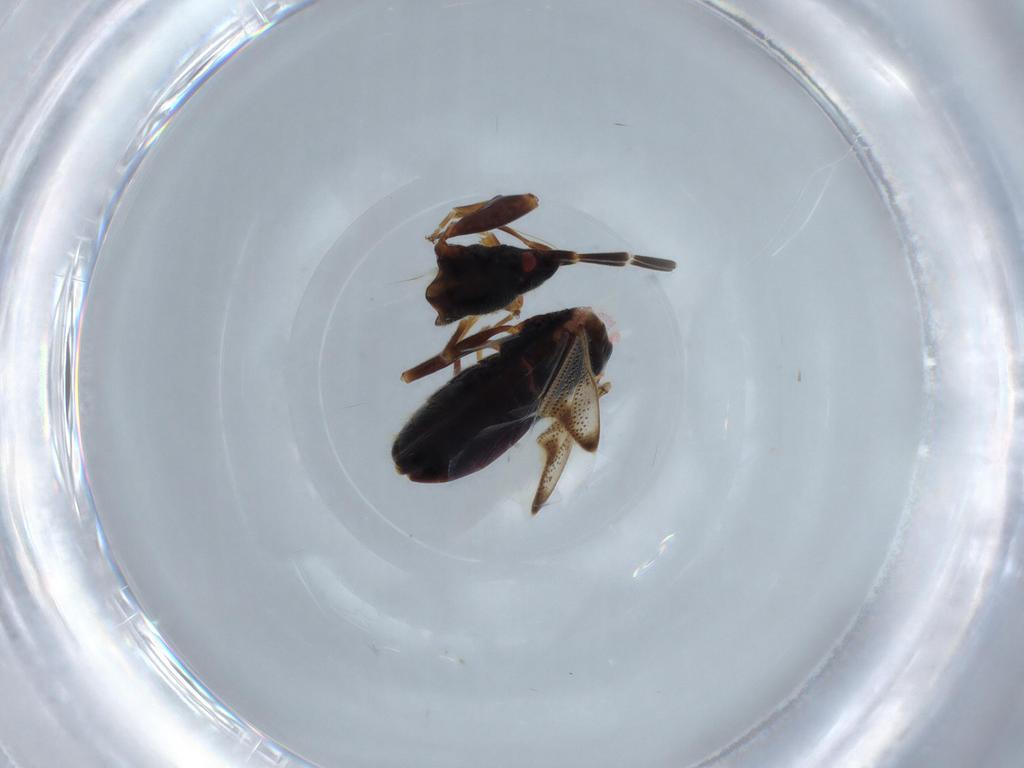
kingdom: Animalia
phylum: Arthropoda
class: Insecta
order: Hemiptera
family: Rhyparochromidae
